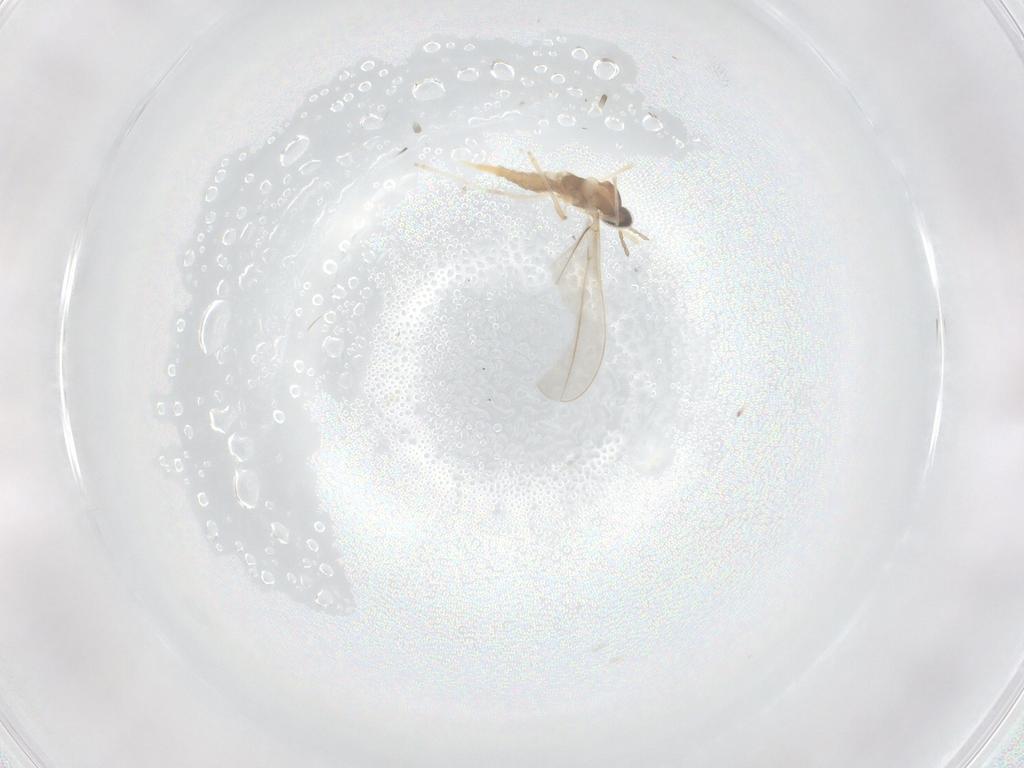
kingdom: Animalia
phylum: Arthropoda
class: Insecta
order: Diptera
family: Cecidomyiidae
